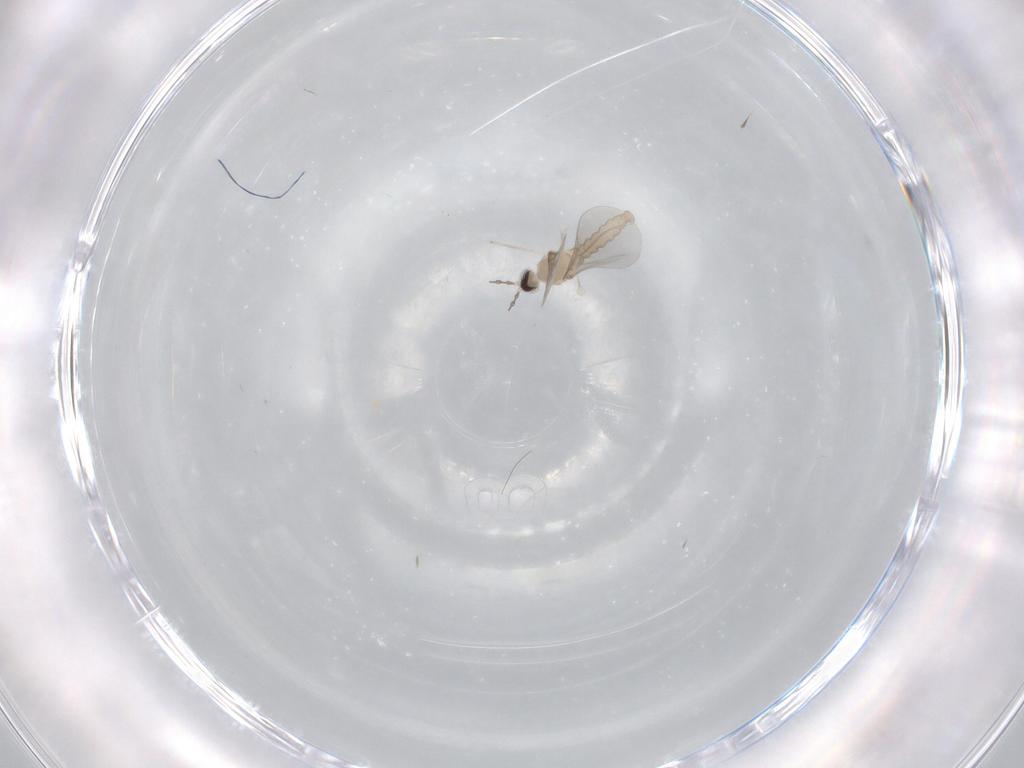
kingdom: Animalia
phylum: Arthropoda
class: Insecta
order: Diptera
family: Cecidomyiidae
